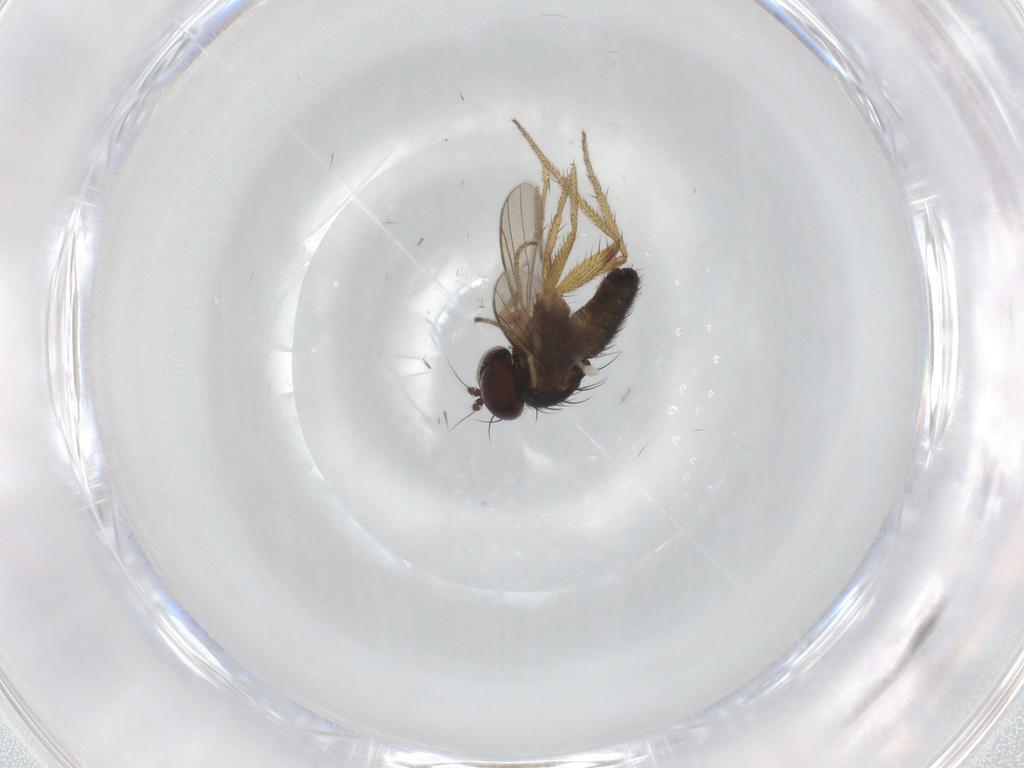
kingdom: Animalia
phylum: Arthropoda
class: Insecta
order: Diptera
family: Dolichopodidae
